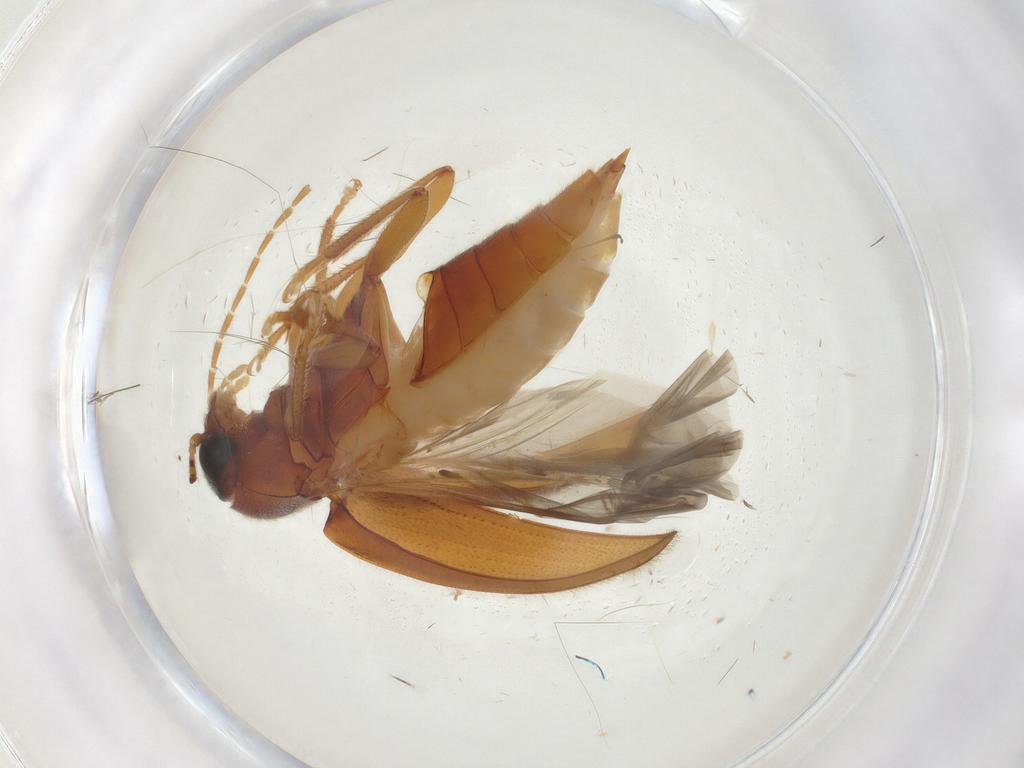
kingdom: Animalia
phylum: Arthropoda
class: Insecta
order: Coleoptera
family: Ptilodactylidae
